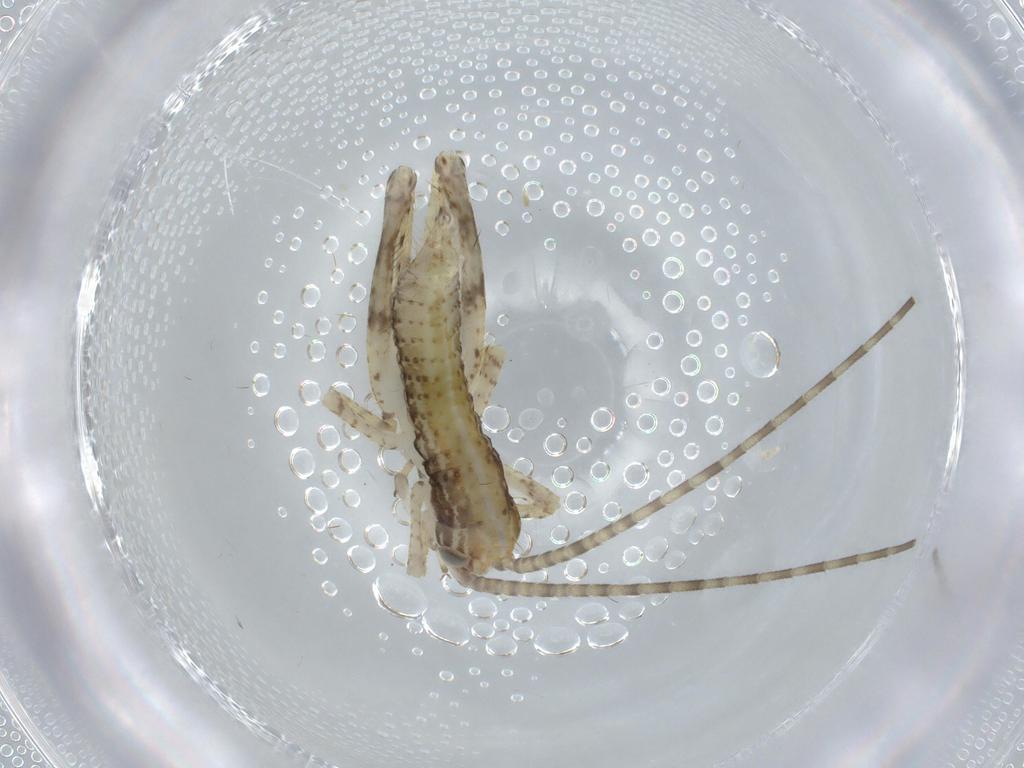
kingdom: Animalia
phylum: Arthropoda
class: Insecta
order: Orthoptera
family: Gryllidae
